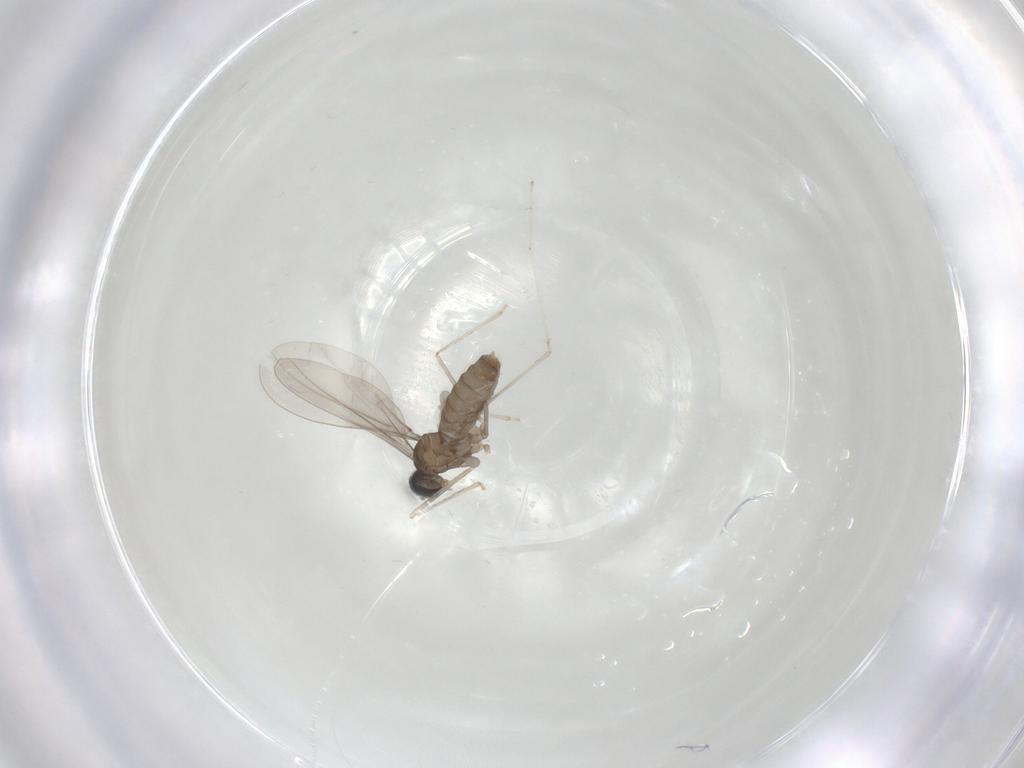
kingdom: Animalia
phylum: Arthropoda
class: Insecta
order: Diptera
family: Cecidomyiidae
